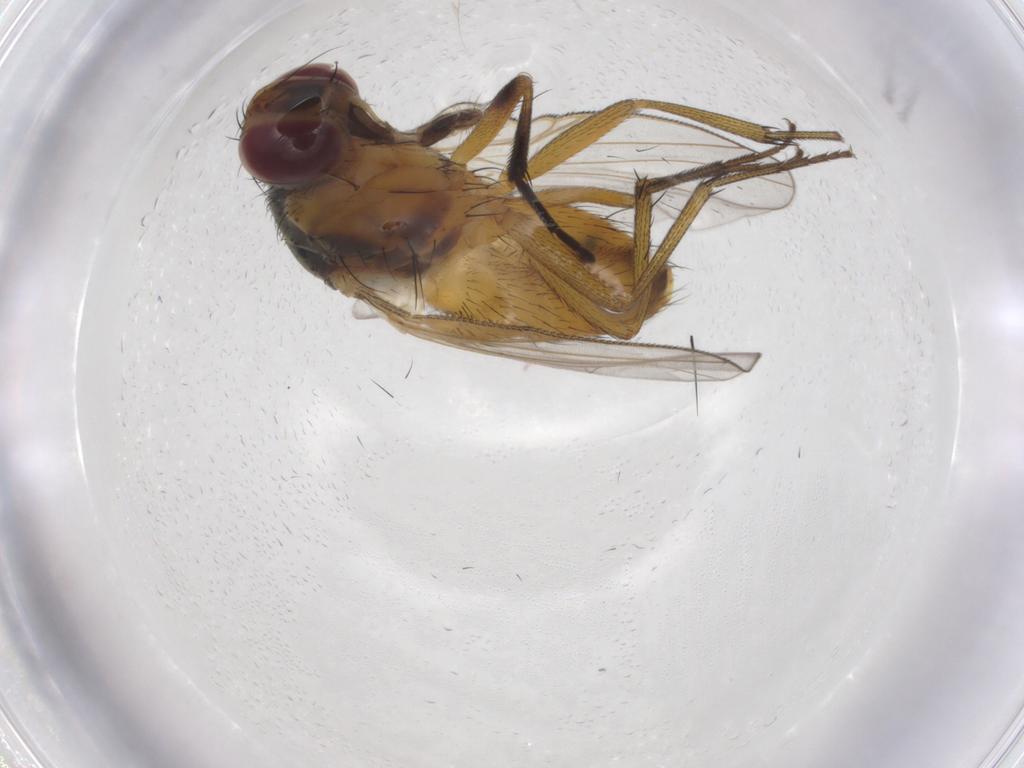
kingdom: Animalia
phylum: Arthropoda
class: Insecta
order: Diptera
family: Muscidae
